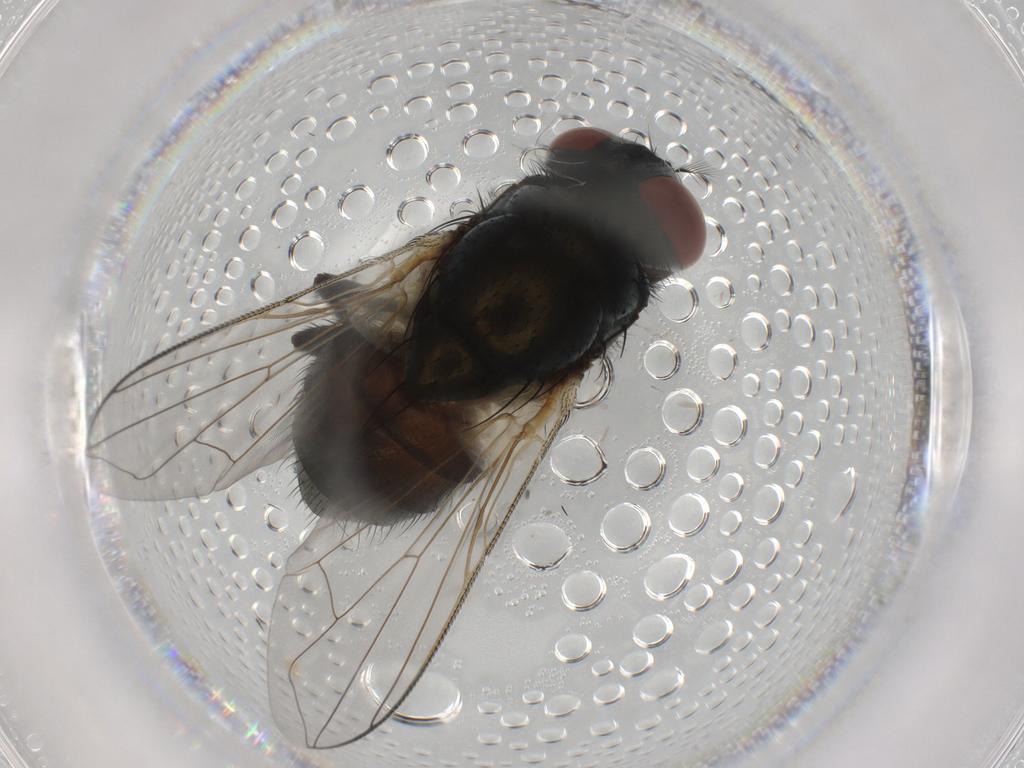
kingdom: Animalia
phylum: Arthropoda
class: Insecta
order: Diptera
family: Muscidae
